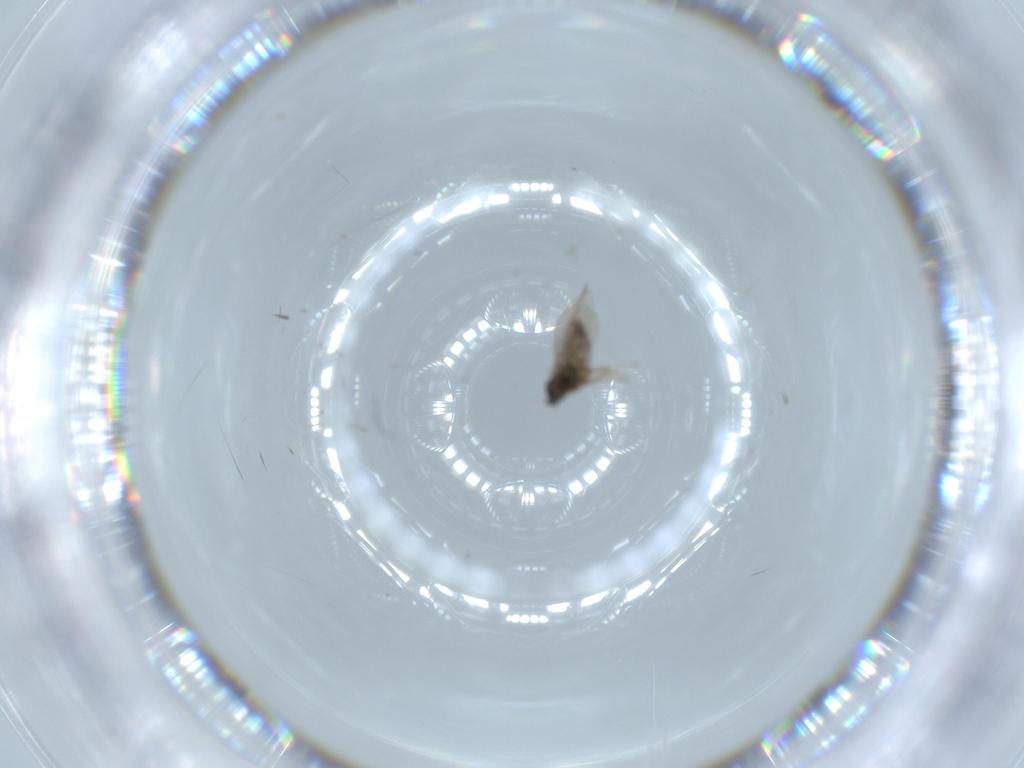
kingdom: Animalia
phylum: Arthropoda
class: Insecta
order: Diptera
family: Cecidomyiidae
